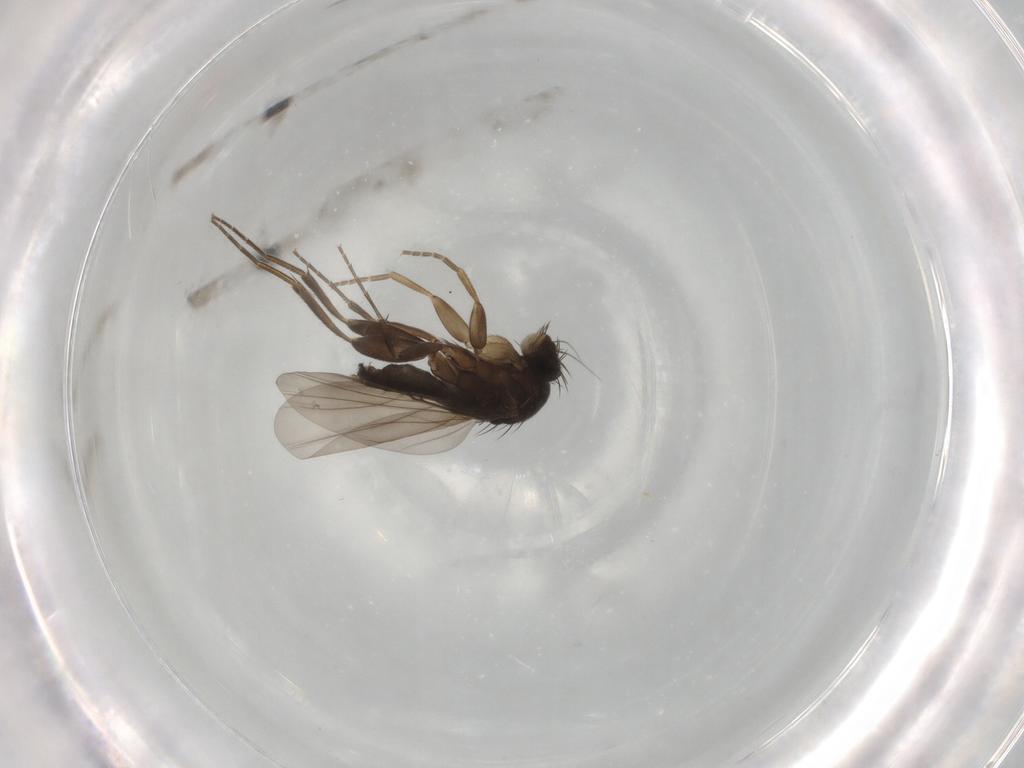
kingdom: Animalia
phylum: Arthropoda
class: Insecta
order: Diptera
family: Phoridae
